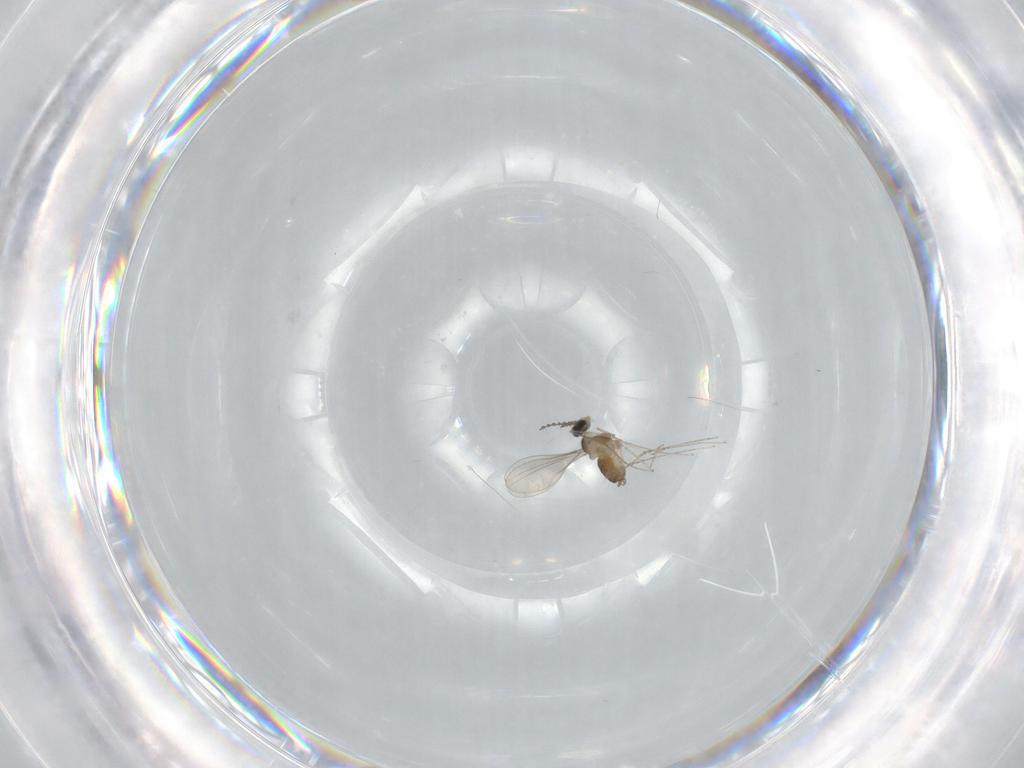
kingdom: Animalia
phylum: Arthropoda
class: Insecta
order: Diptera
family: Cecidomyiidae
